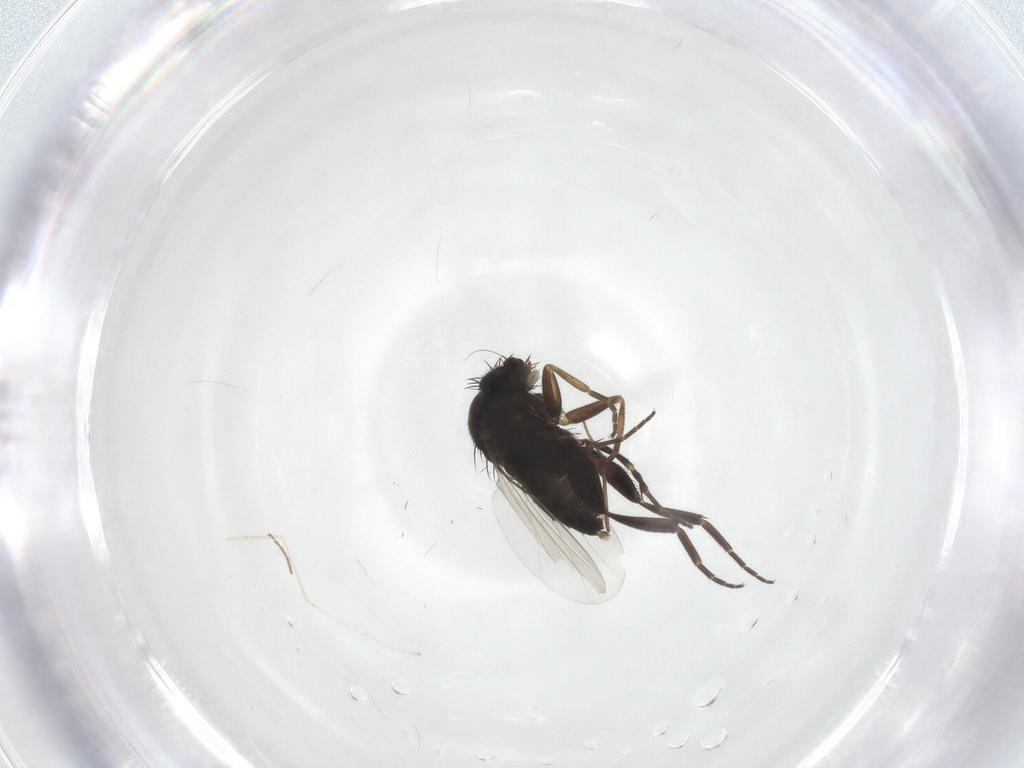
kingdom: Animalia
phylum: Arthropoda
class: Insecta
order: Diptera
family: Phoridae
